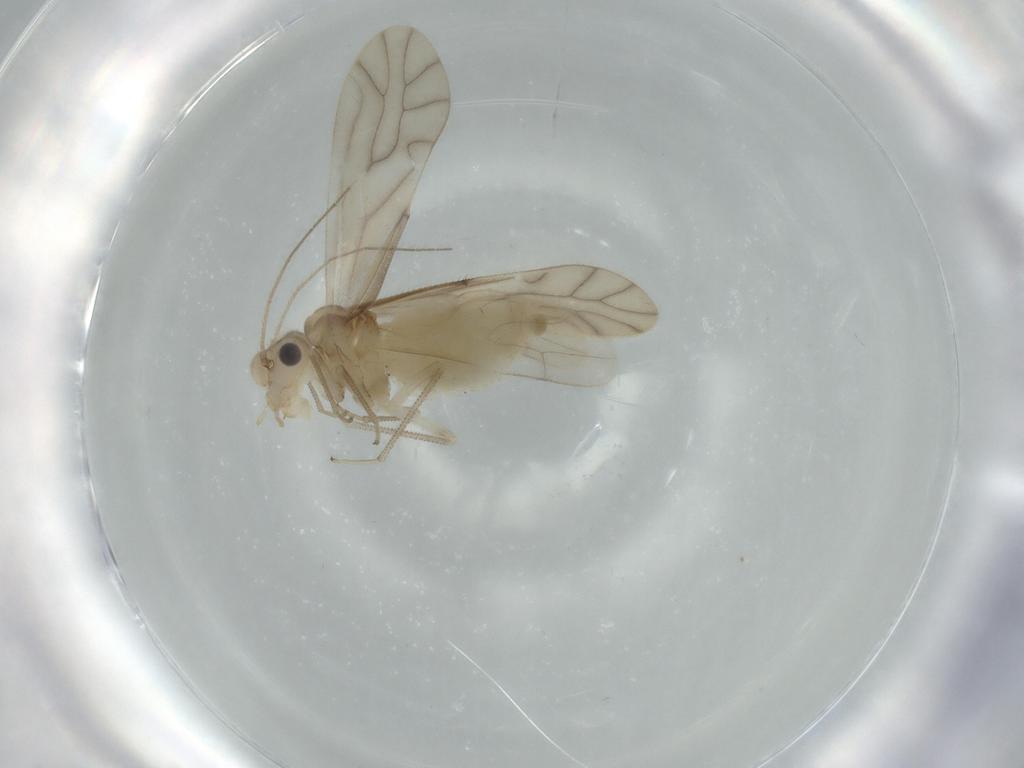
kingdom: Animalia
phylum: Arthropoda
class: Insecta
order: Psocodea
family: Caeciliusidae
